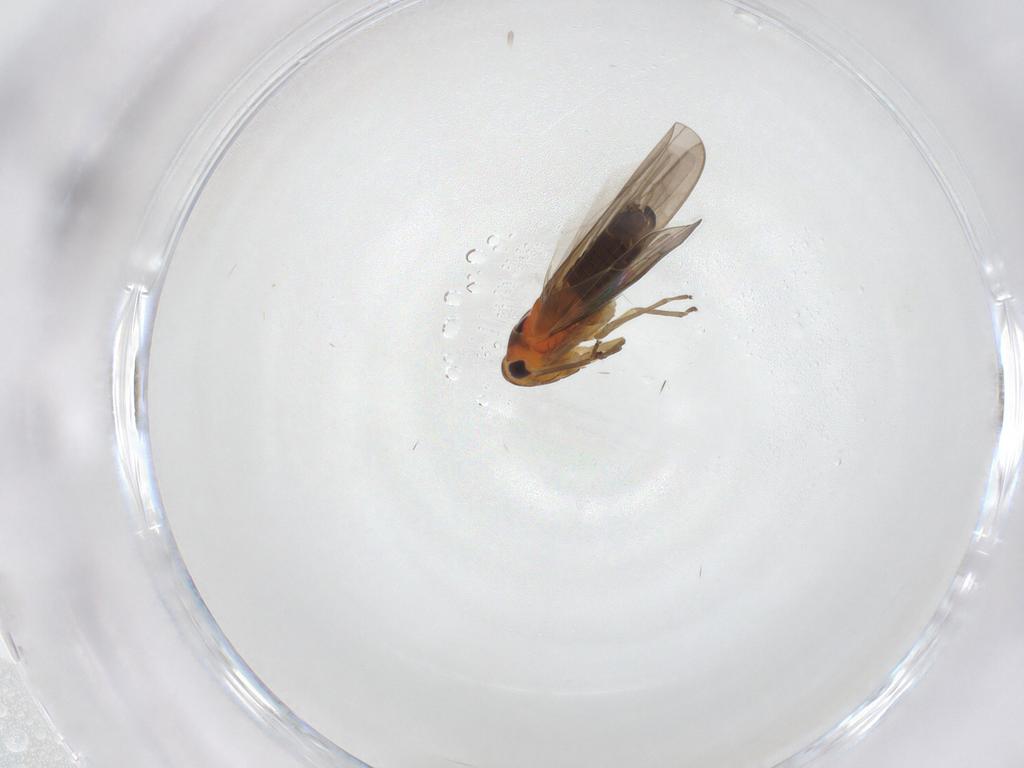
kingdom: Animalia
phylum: Arthropoda
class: Insecta
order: Hemiptera
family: Cicadellidae
